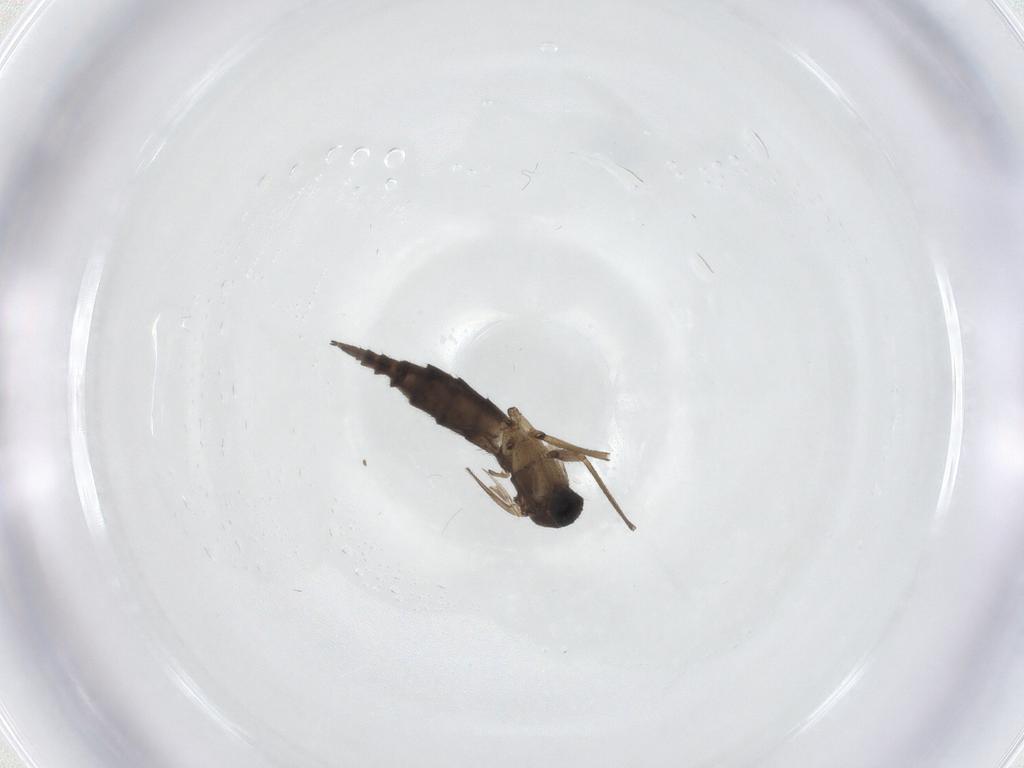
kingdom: Animalia
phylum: Arthropoda
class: Insecta
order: Diptera
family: Sciaridae
